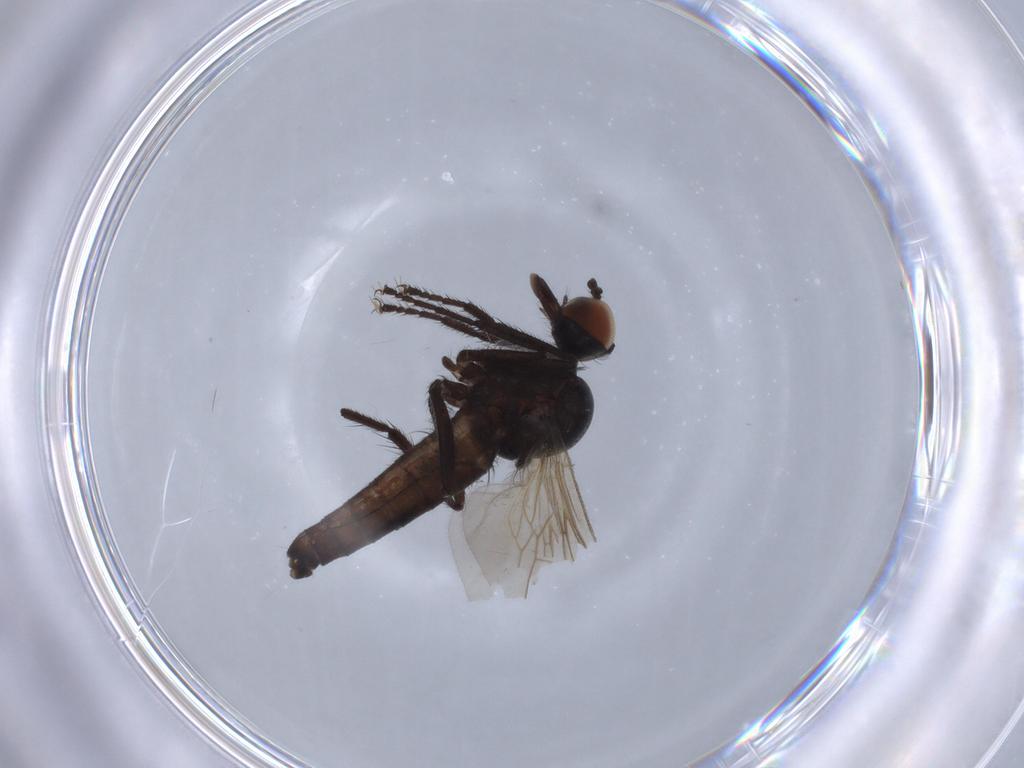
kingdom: Animalia
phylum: Arthropoda
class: Insecta
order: Diptera
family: Empididae
